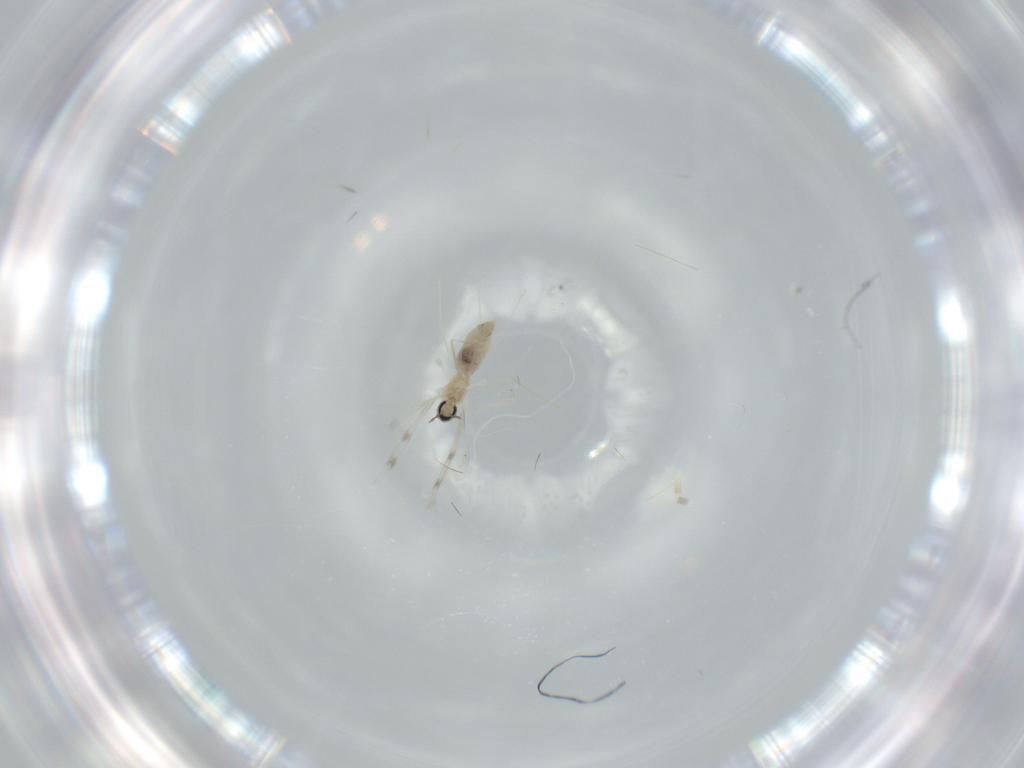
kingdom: Animalia
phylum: Arthropoda
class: Insecta
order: Diptera
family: Cecidomyiidae
